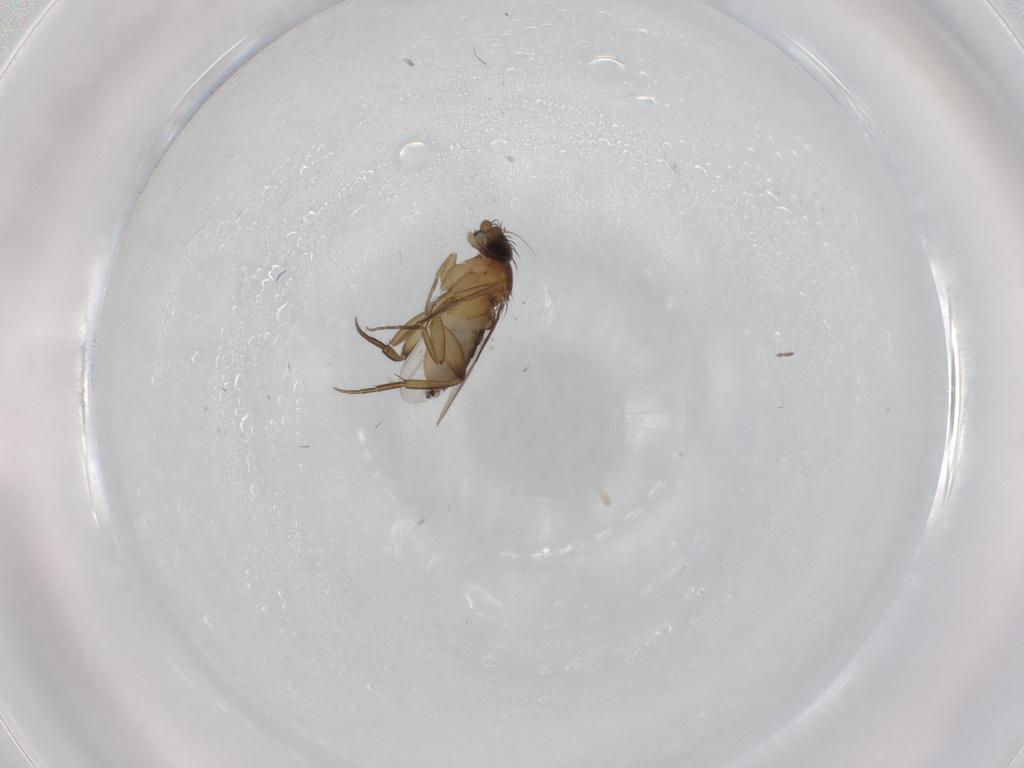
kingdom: Animalia
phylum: Arthropoda
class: Insecta
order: Diptera
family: Phoridae
